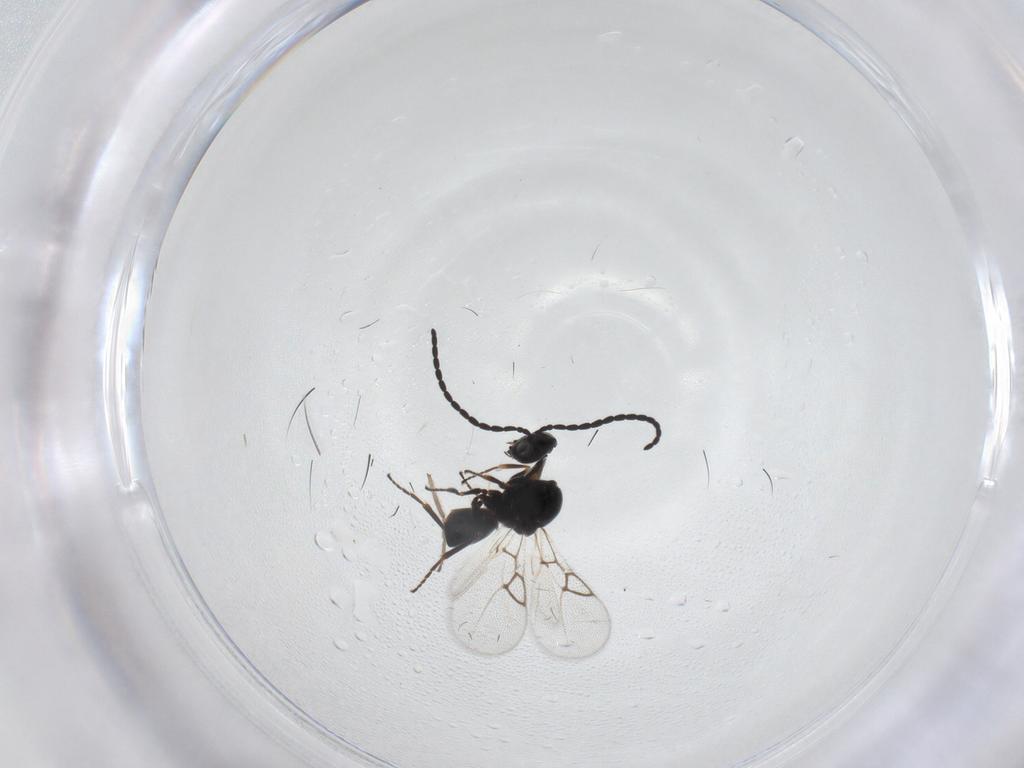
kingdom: Animalia
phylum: Arthropoda
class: Insecta
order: Hymenoptera
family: Figitidae
